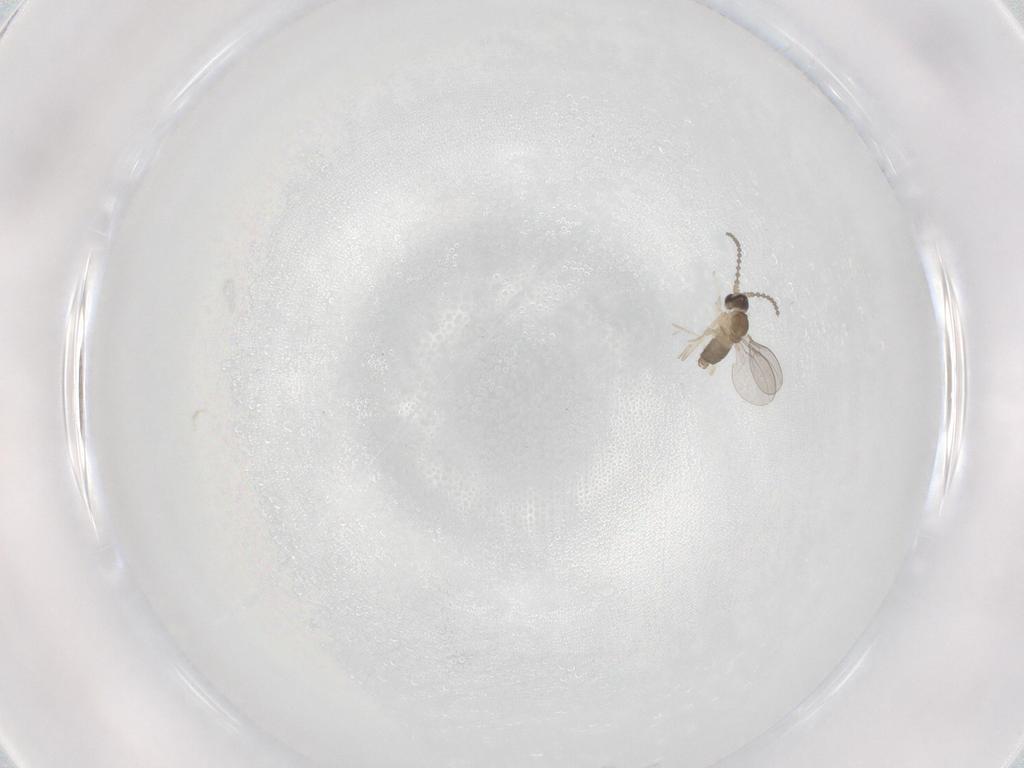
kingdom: Animalia
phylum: Arthropoda
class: Insecta
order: Diptera
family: Cecidomyiidae
